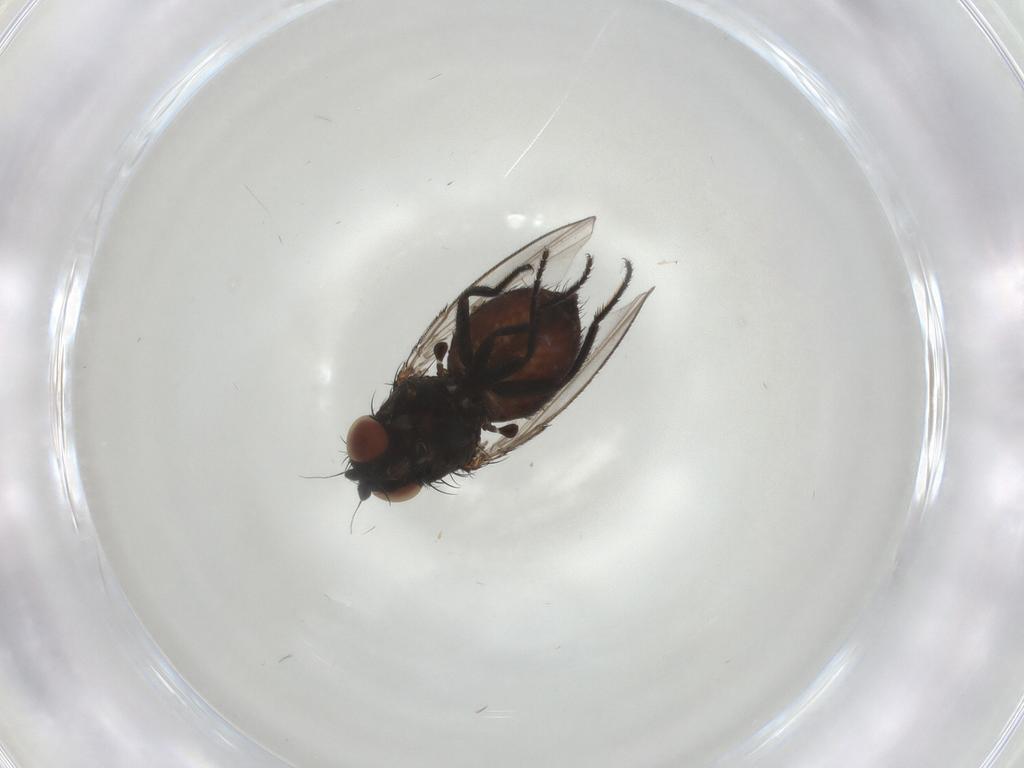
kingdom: Animalia
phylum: Arthropoda
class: Insecta
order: Diptera
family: Milichiidae
